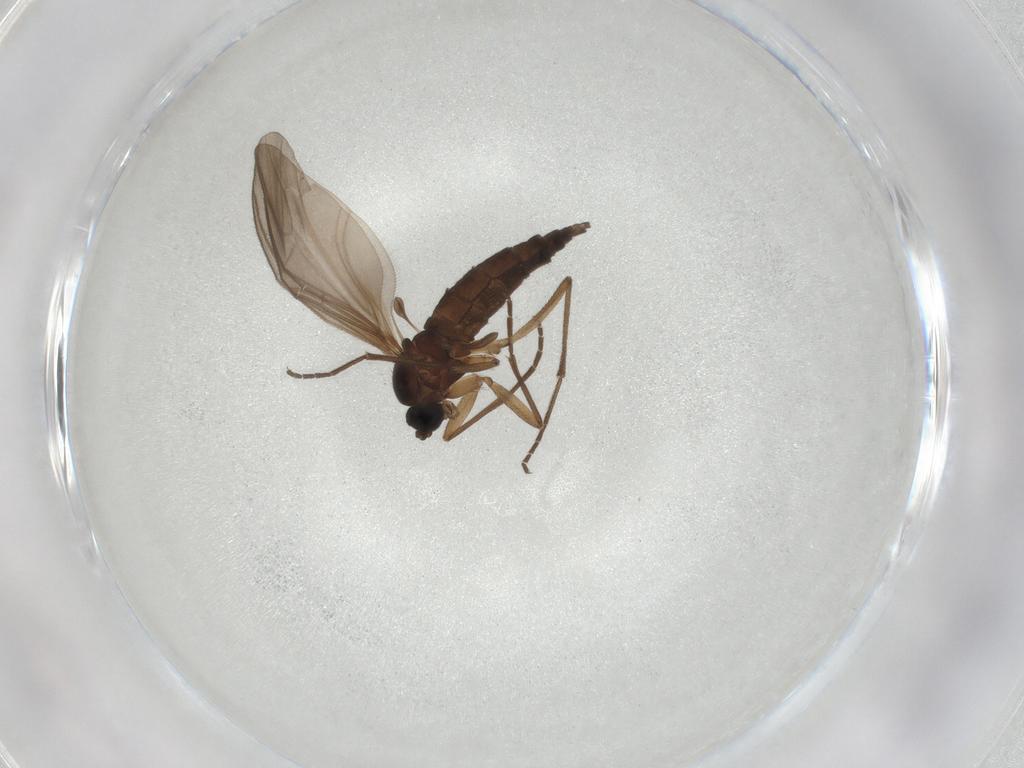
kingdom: Animalia
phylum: Arthropoda
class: Insecta
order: Diptera
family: Sciaridae
